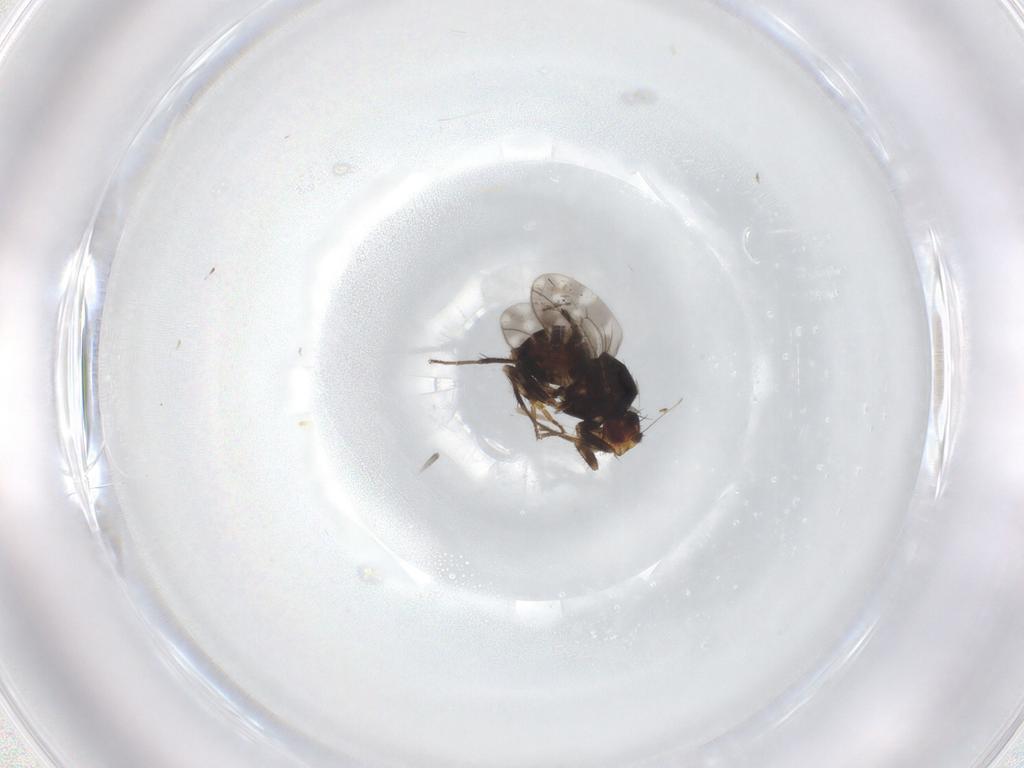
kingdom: Animalia
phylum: Arthropoda
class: Insecta
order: Diptera
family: Sphaeroceridae
